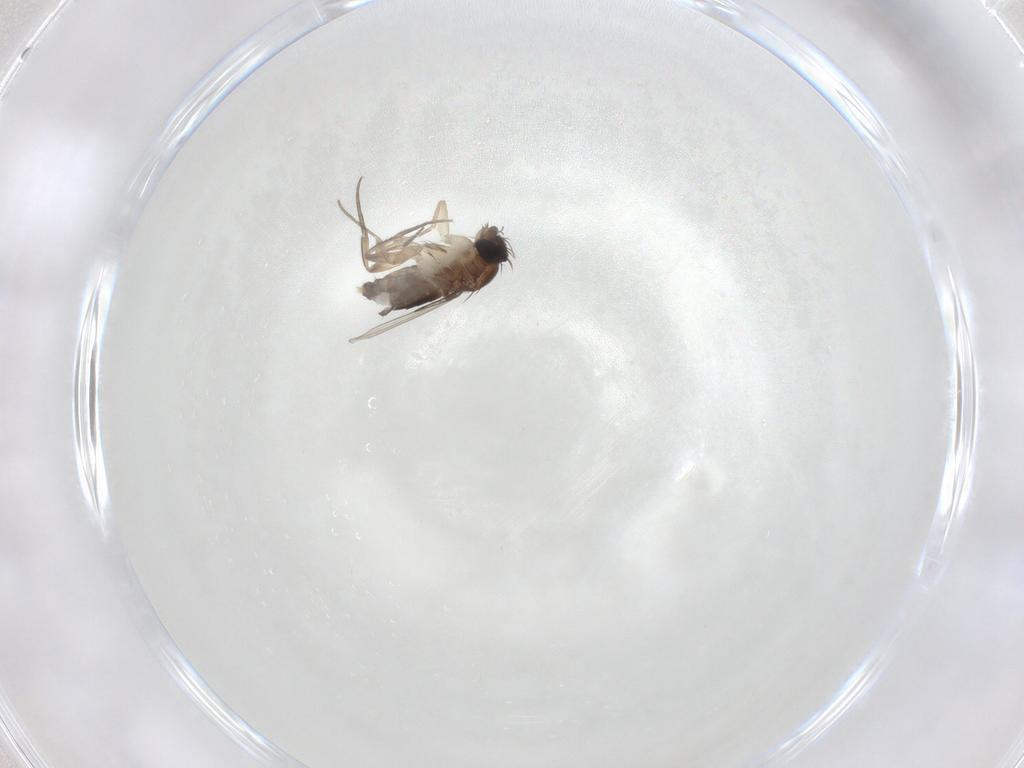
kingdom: Animalia
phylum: Arthropoda
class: Insecta
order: Diptera
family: Phoridae
